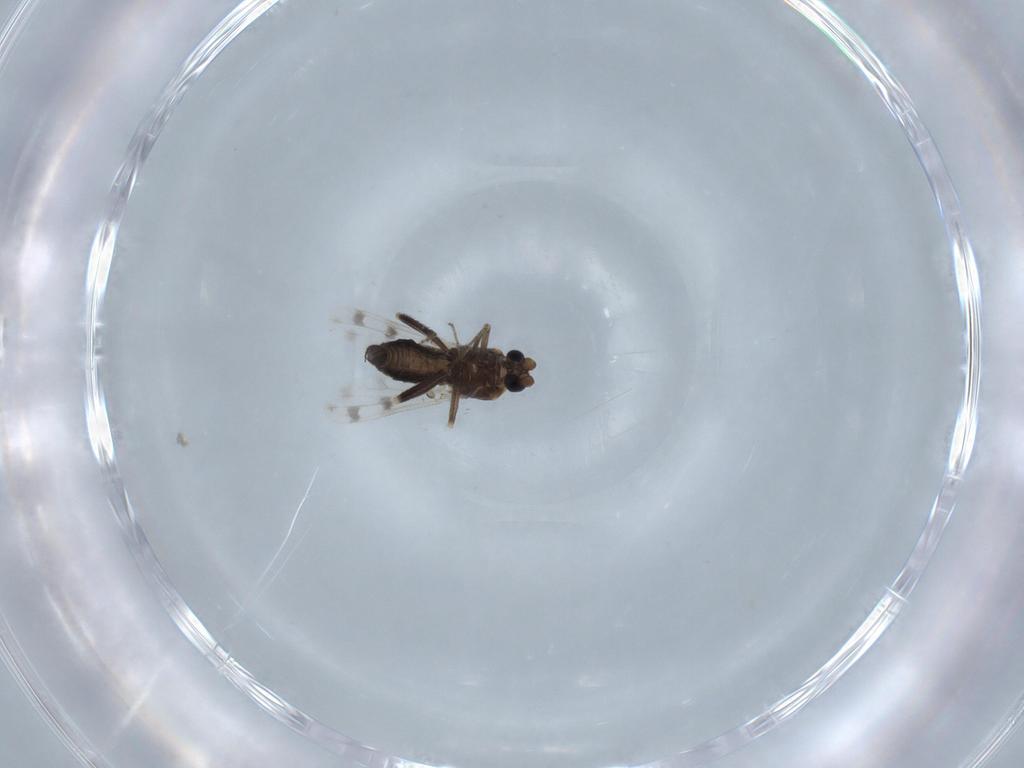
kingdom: Animalia
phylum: Arthropoda
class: Insecta
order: Diptera
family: Ceratopogonidae
